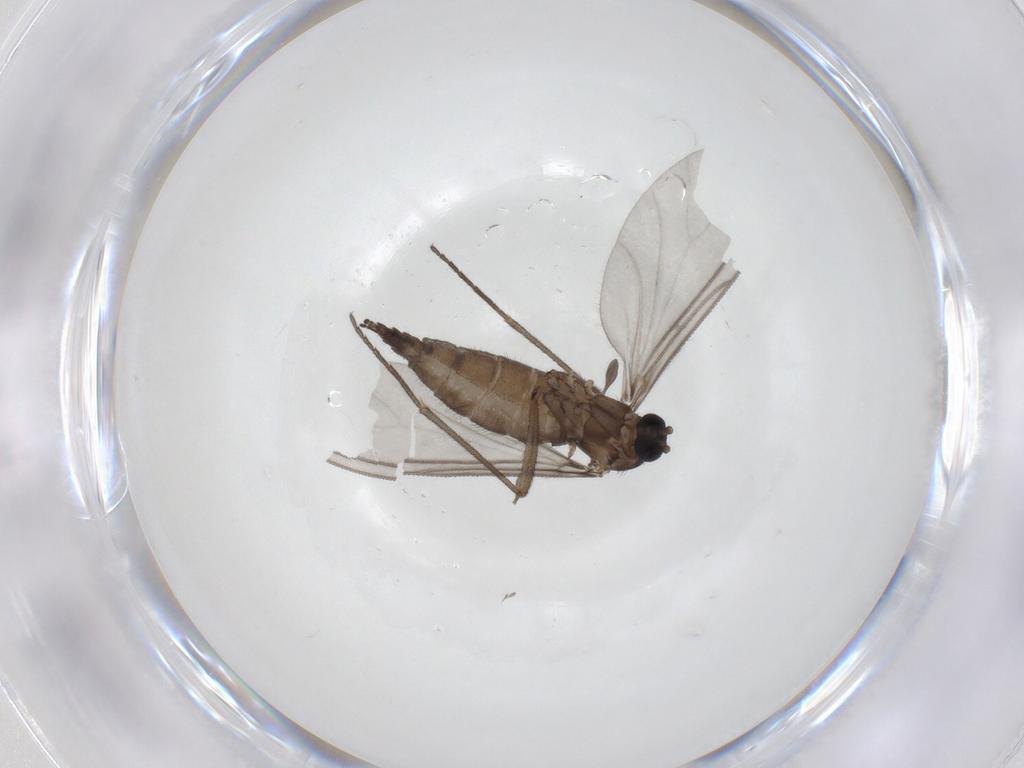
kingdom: Animalia
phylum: Arthropoda
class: Insecta
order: Diptera
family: Sciaridae
